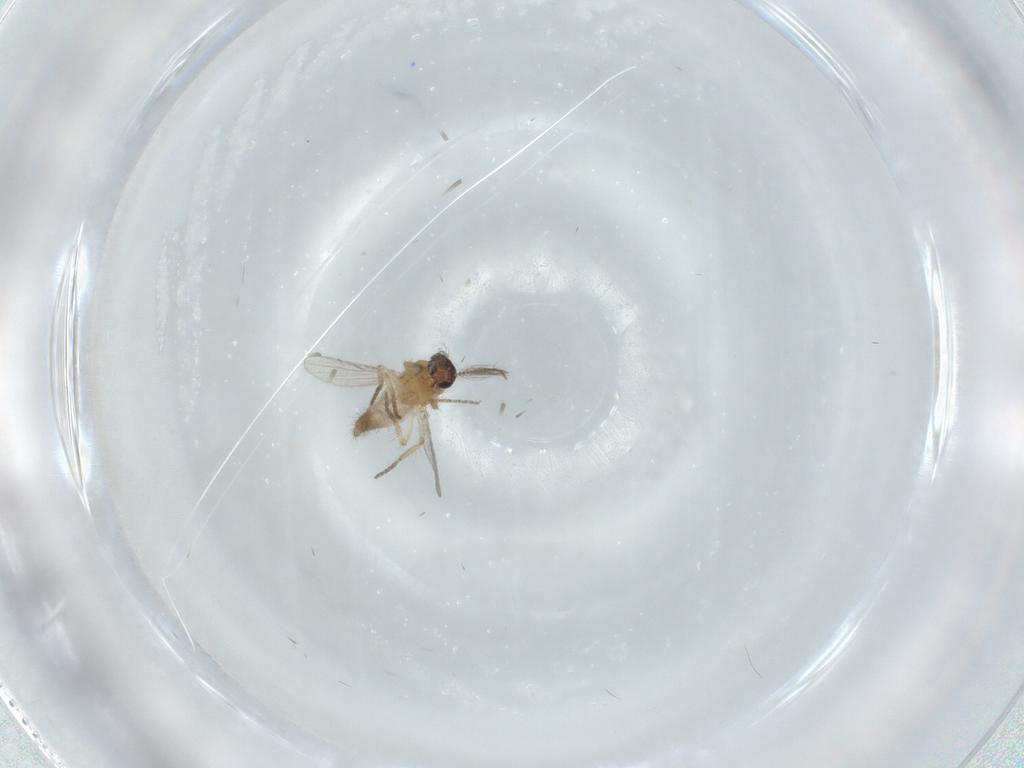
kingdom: Animalia
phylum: Arthropoda
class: Insecta
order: Diptera
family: Ceratopogonidae
